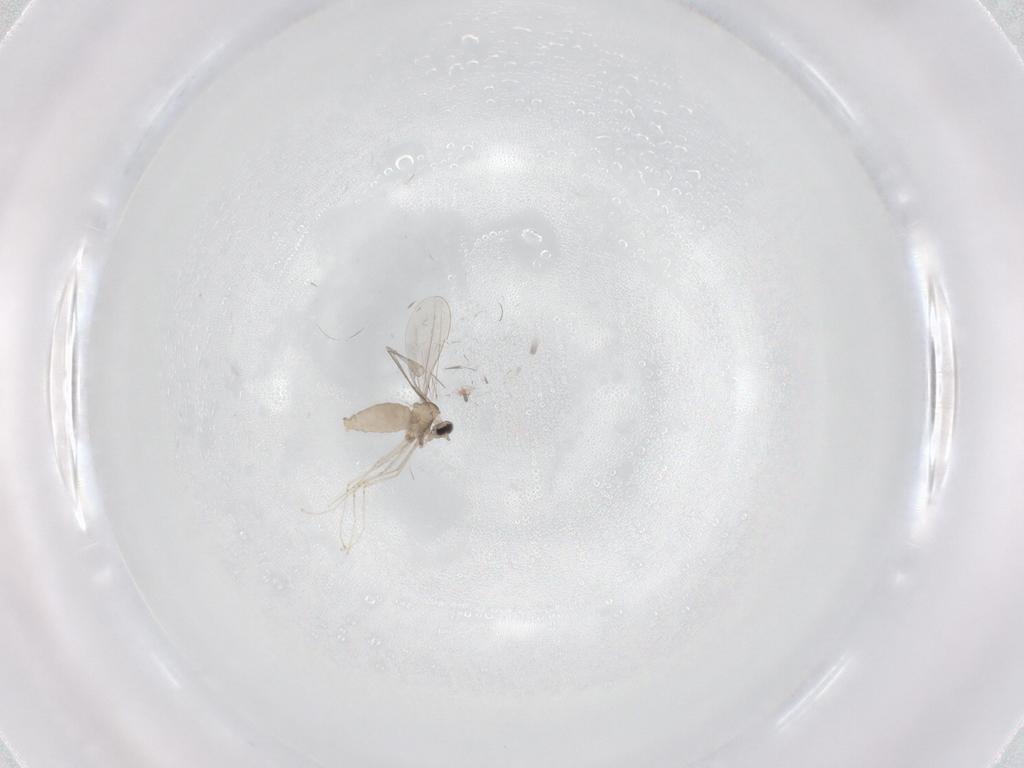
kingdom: Animalia
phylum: Arthropoda
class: Insecta
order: Diptera
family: Sciaridae
